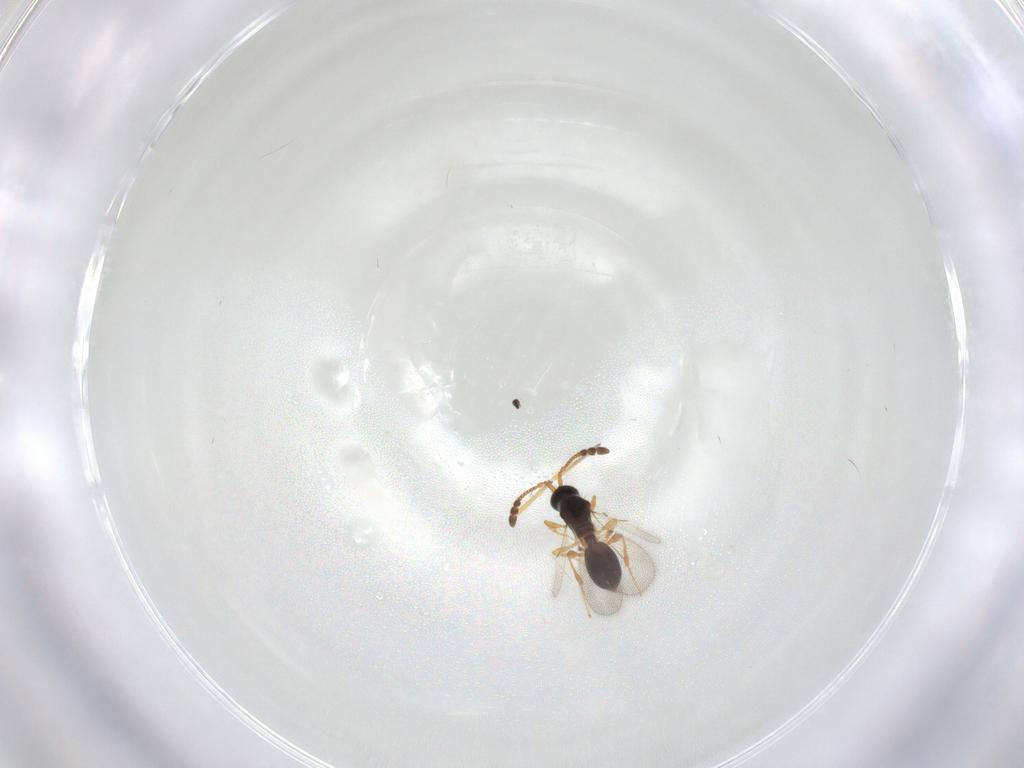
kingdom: Animalia
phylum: Arthropoda
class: Insecta
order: Hymenoptera
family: Diapriidae
